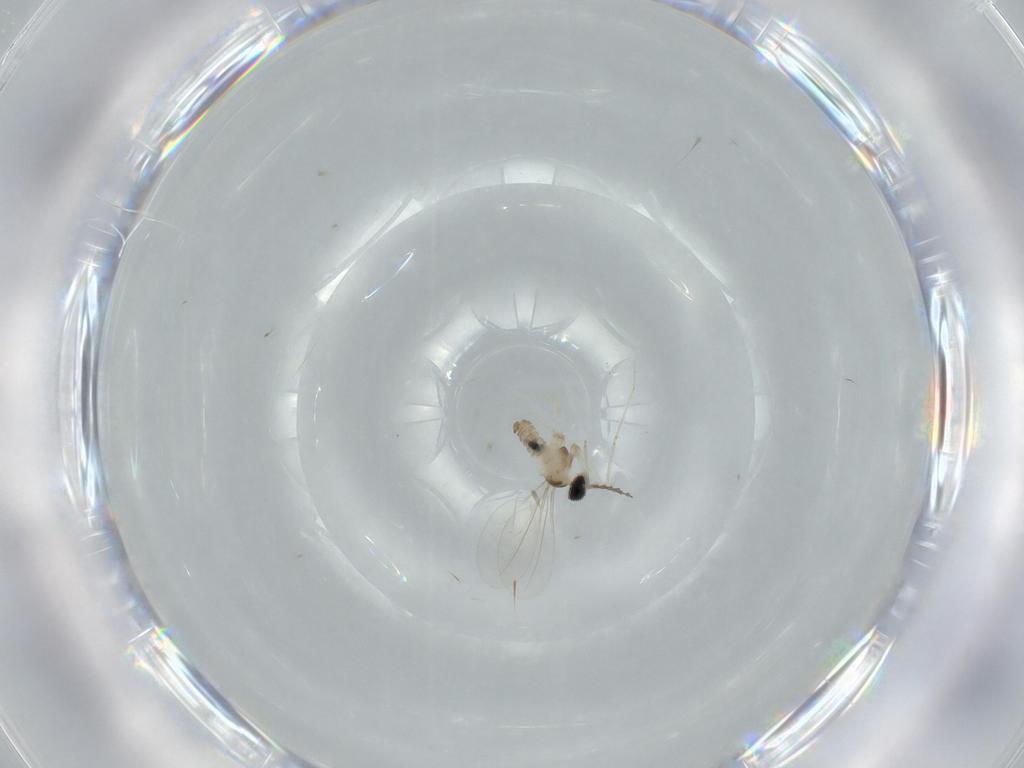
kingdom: Animalia
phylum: Arthropoda
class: Insecta
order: Diptera
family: Cecidomyiidae
